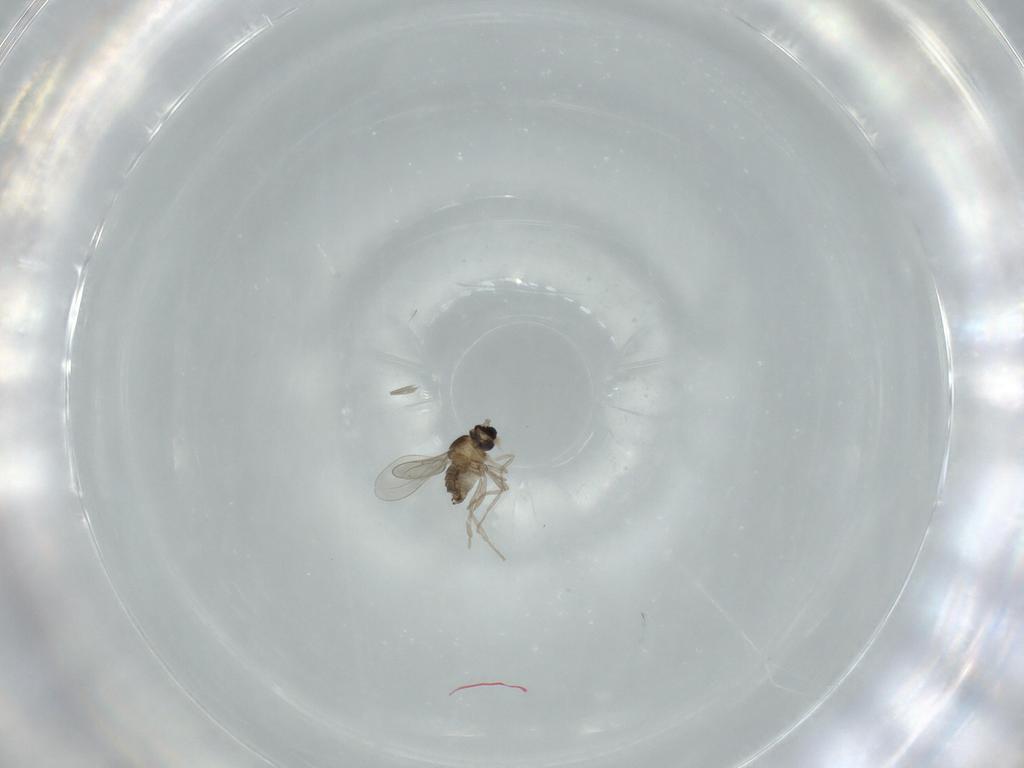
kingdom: Animalia
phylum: Arthropoda
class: Insecta
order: Diptera
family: Cecidomyiidae
